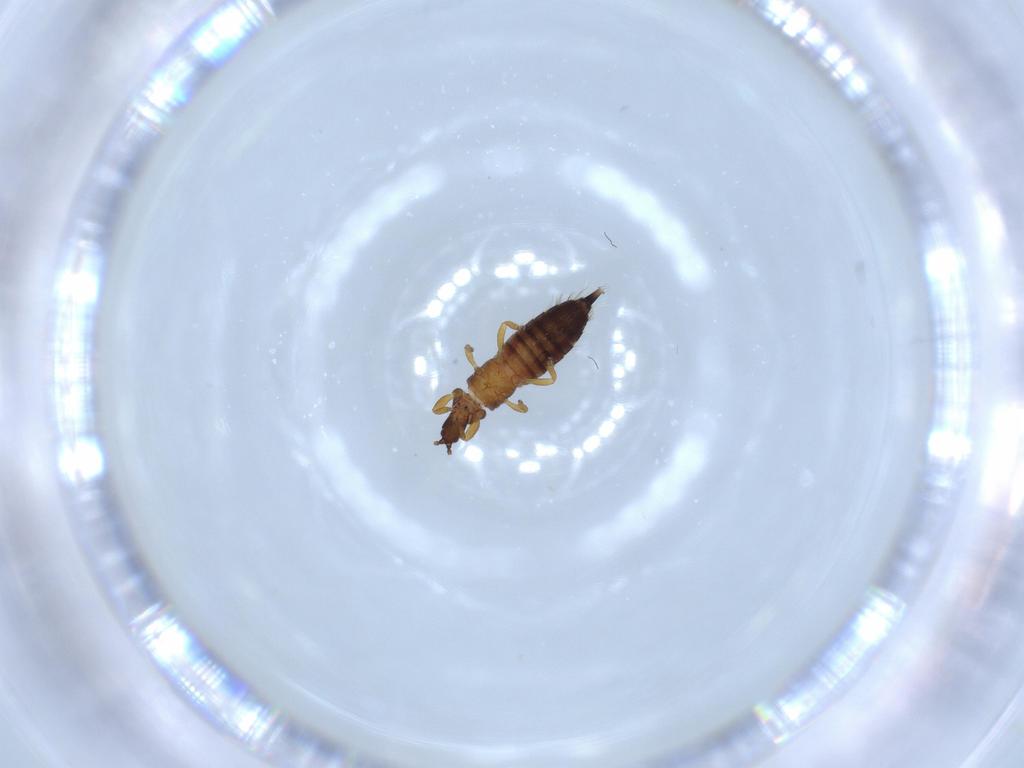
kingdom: Animalia
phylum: Arthropoda
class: Insecta
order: Thysanoptera
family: Phlaeothripidae
